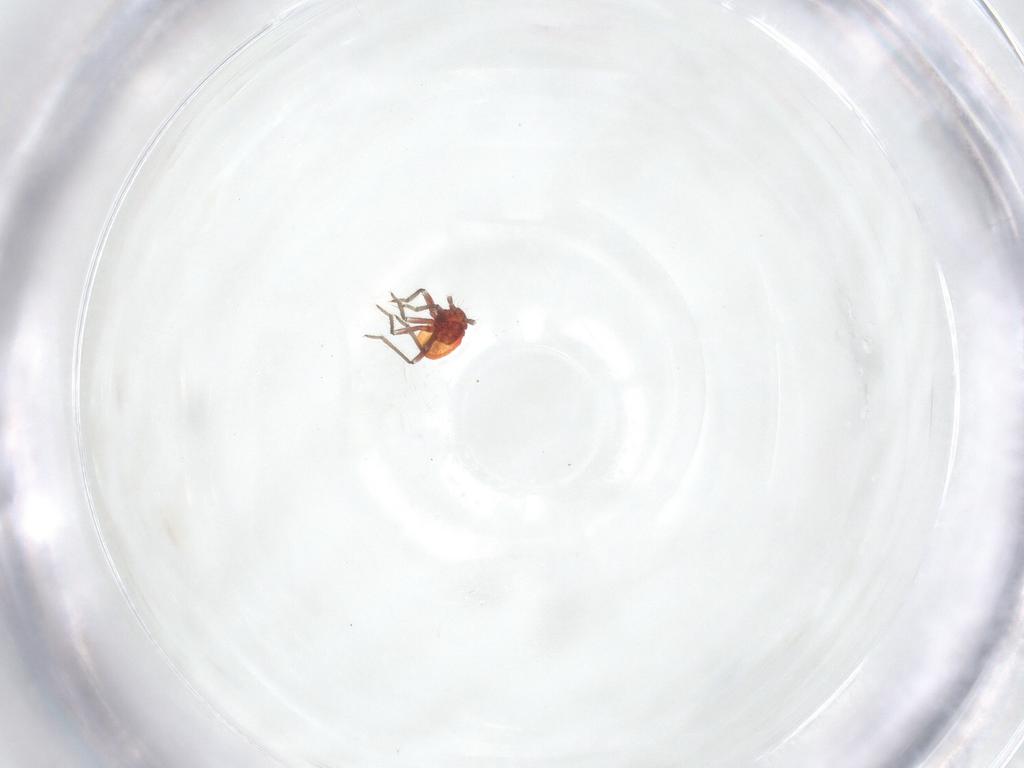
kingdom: Animalia
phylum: Arthropoda
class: Insecta
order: Hemiptera
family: Schizopteridae
